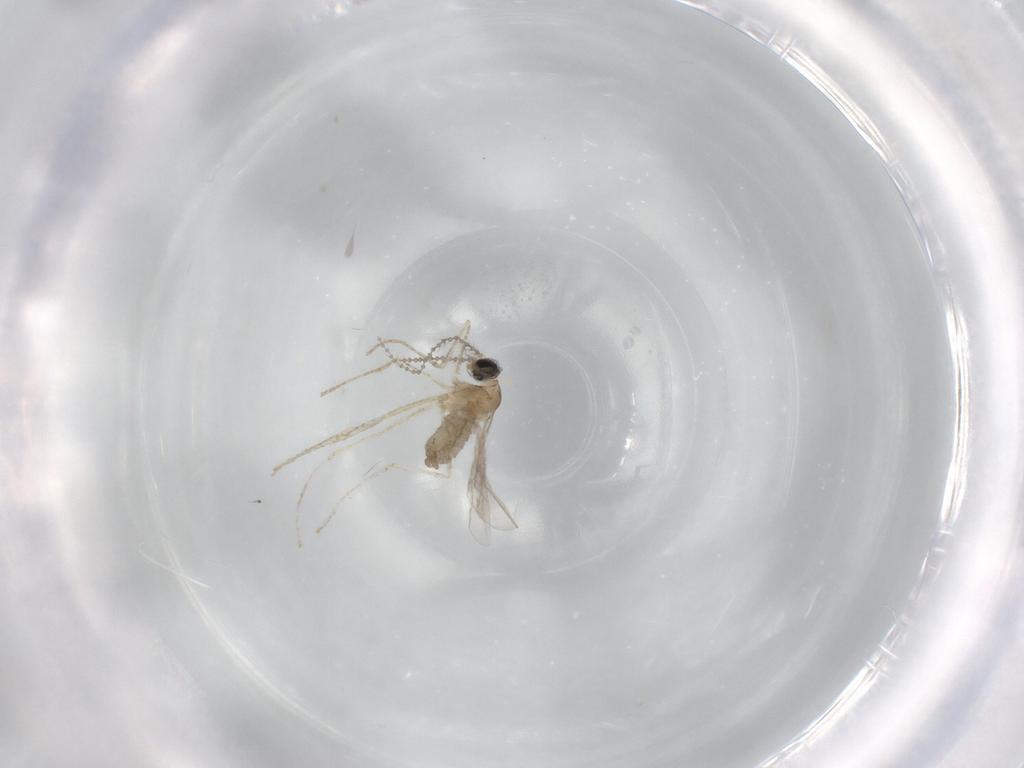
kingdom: Animalia
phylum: Arthropoda
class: Insecta
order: Diptera
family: Cecidomyiidae
